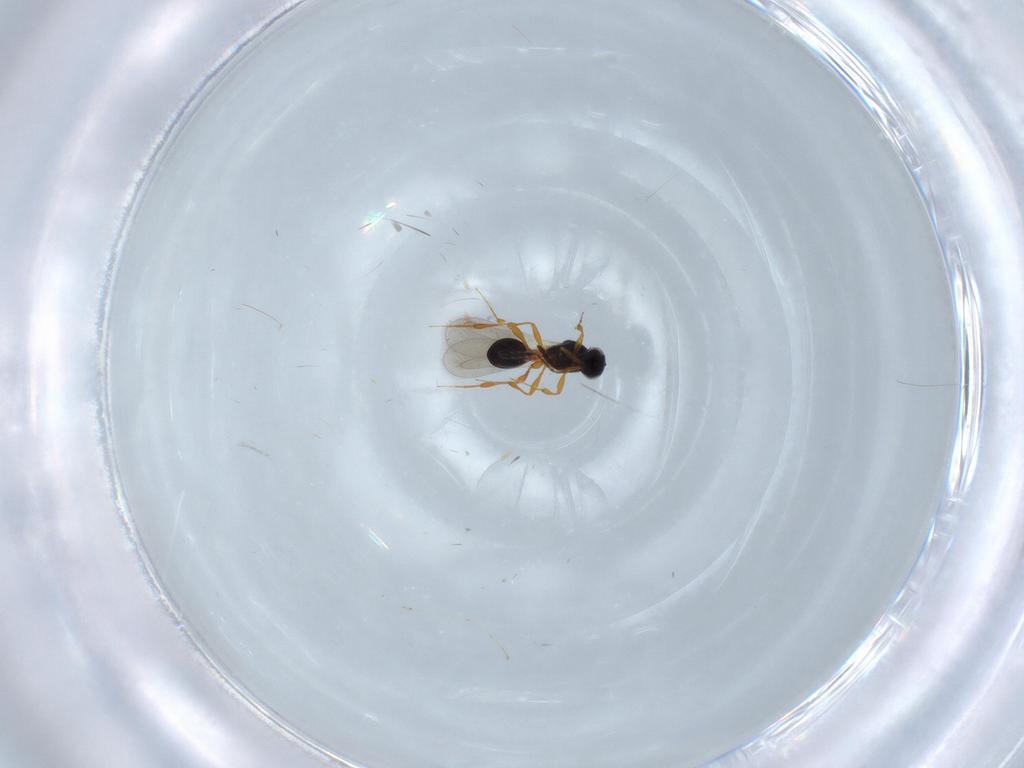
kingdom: Animalia
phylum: Arthropoda
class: Insecta
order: Hymenoptera
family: Platygastridae
